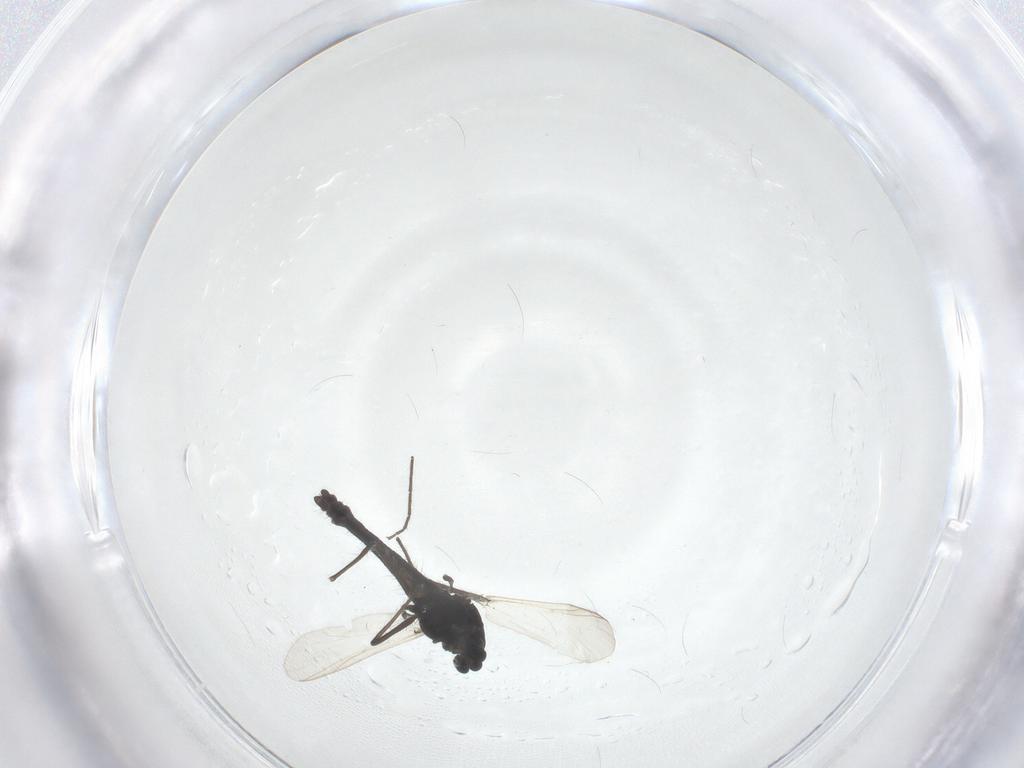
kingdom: Animalia
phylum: Arthropoda
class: Insecta
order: Diptera
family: Chironomidae
